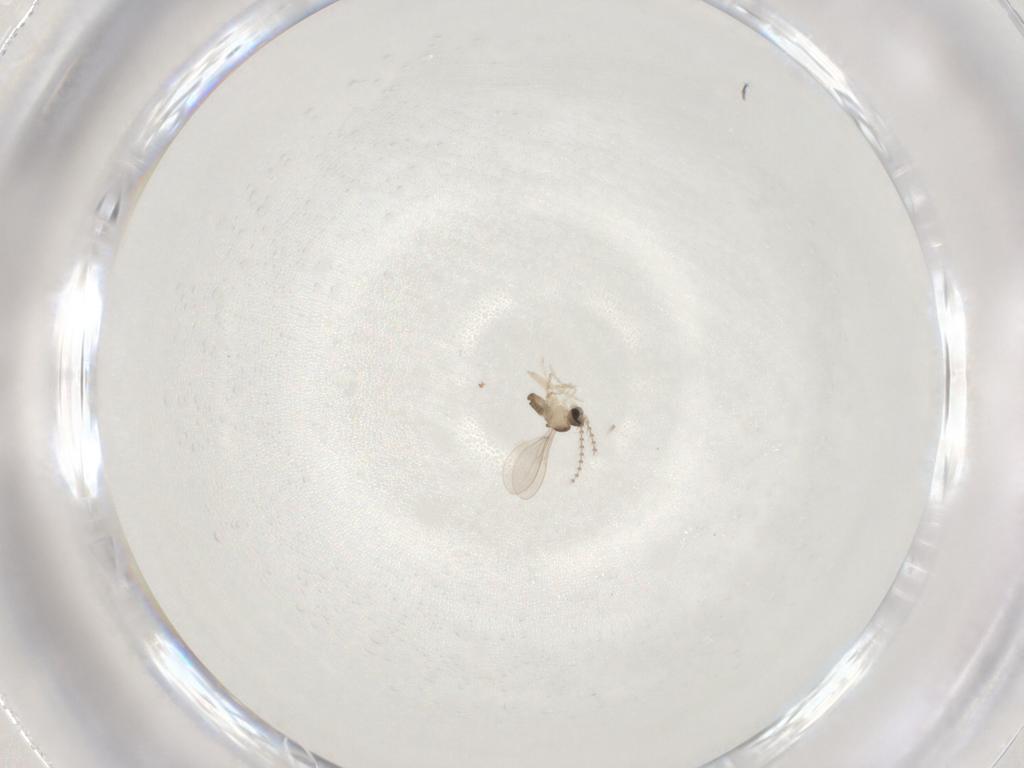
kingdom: Animalia
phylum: Arthropoda
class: Insecta
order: Diptera
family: Cecidomyiidae
